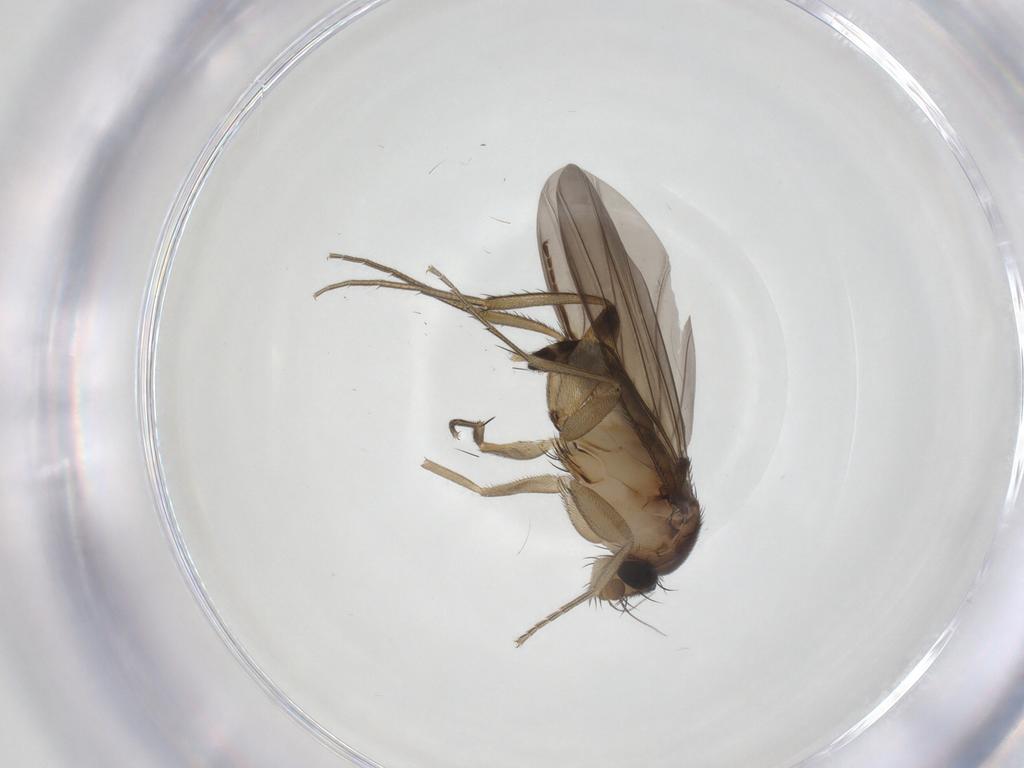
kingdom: Animalia
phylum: Arthropoda
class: Insecta
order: Diptera
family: Phoridae
